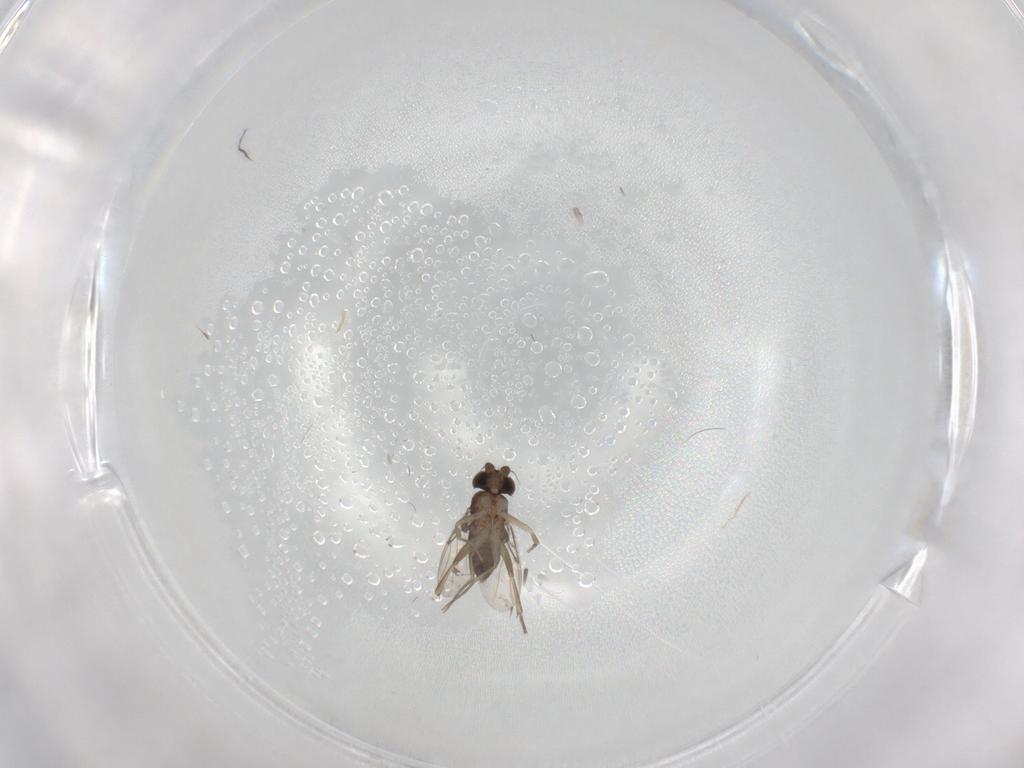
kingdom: Animalia
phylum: Arthropoda
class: Insecta
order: Diptera
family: Phoridae
